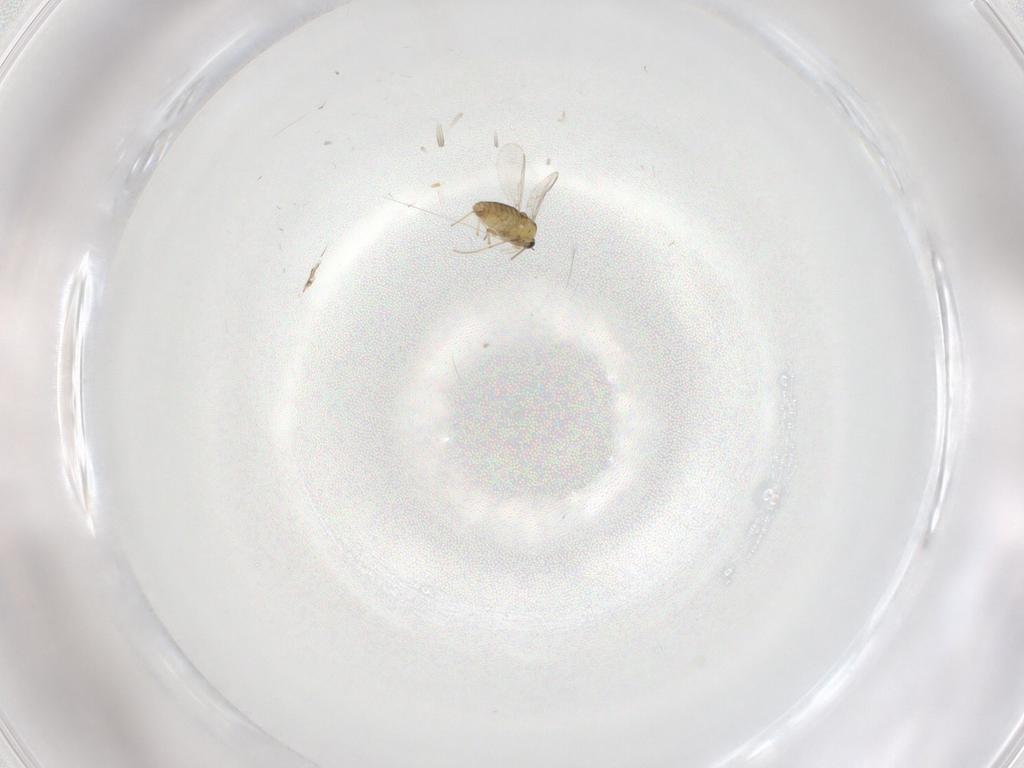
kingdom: Animalia
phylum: Arthropoda
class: Insecta
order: Diptera
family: Chironomidae
